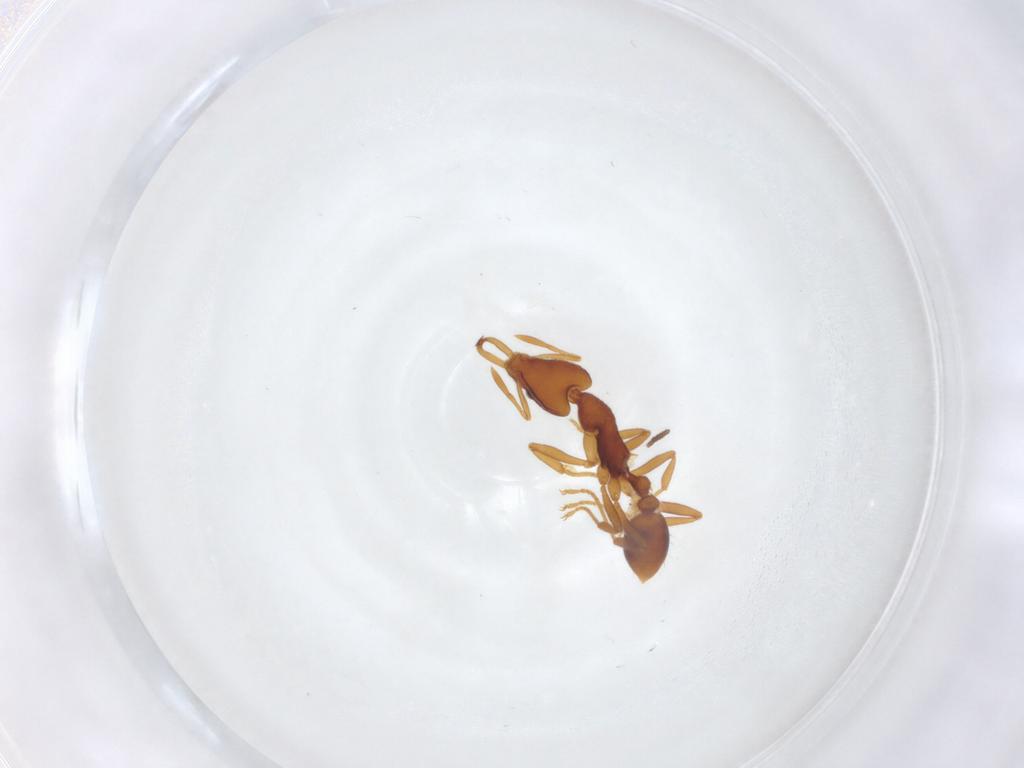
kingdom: Animalia
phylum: Arthropoda
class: Insecta
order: Hymenoptera
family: Formicidae
